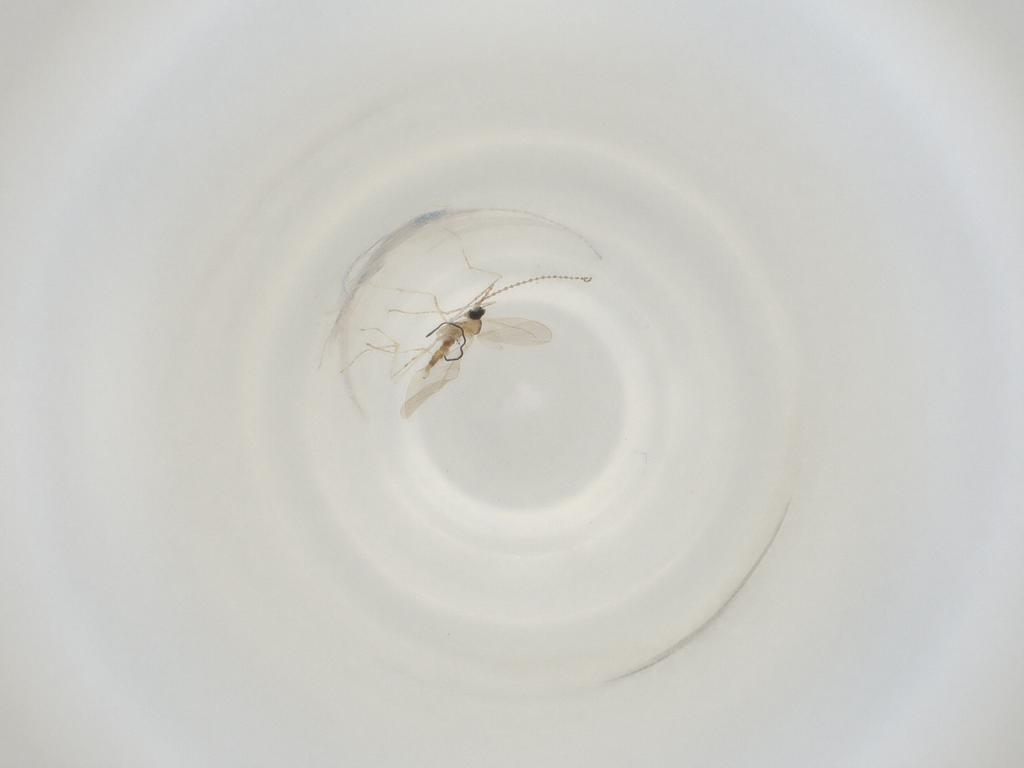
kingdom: Animalia
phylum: Arthropoda
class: Insecta
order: Diptera
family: Cecidomyiidae
